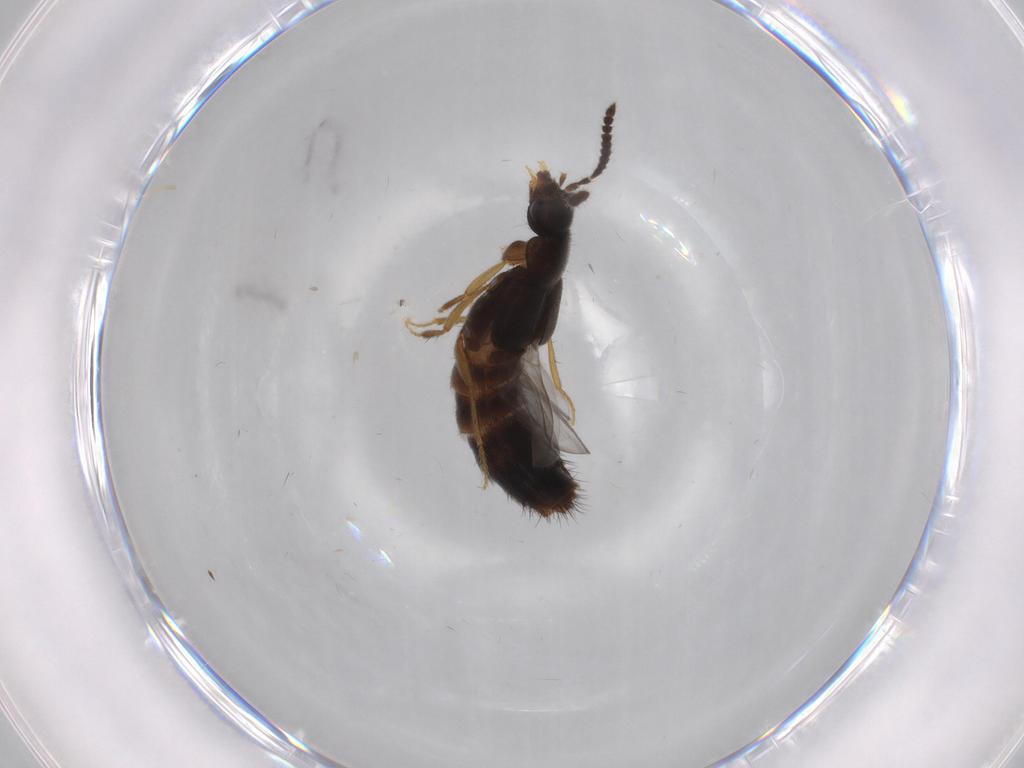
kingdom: Animalia
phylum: Arthropoda
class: Insecta
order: Coleoptera
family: Staphylinidae
